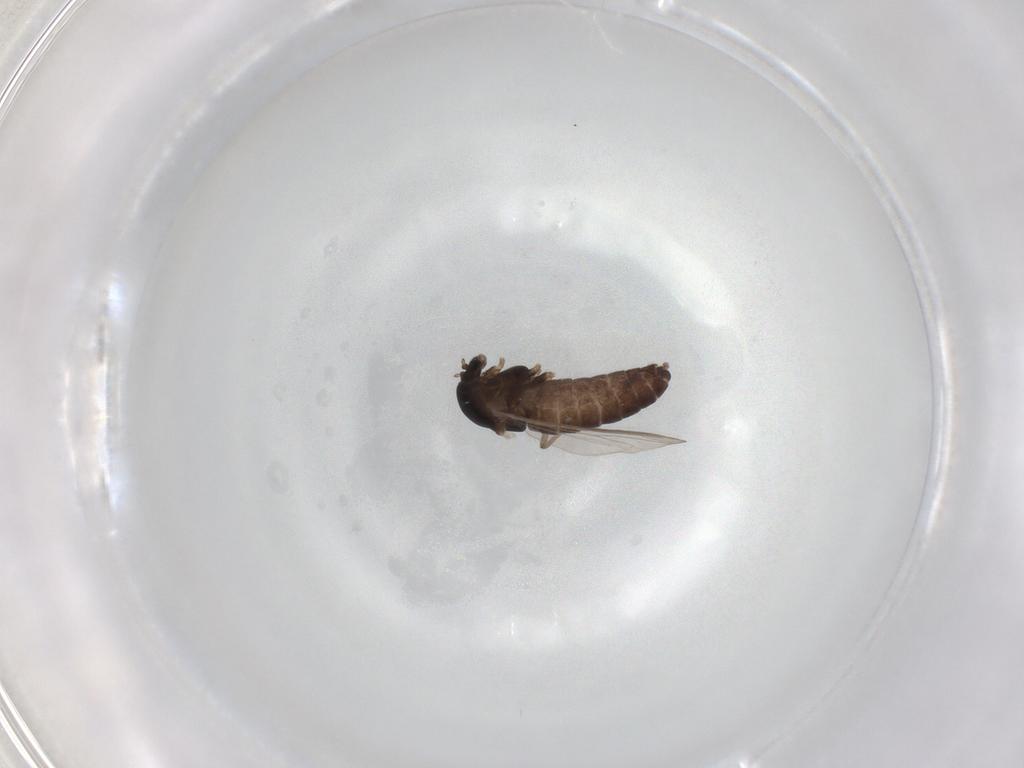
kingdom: Animalia
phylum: Arthropoda
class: Insecta
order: Diptera
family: Chironomidae
